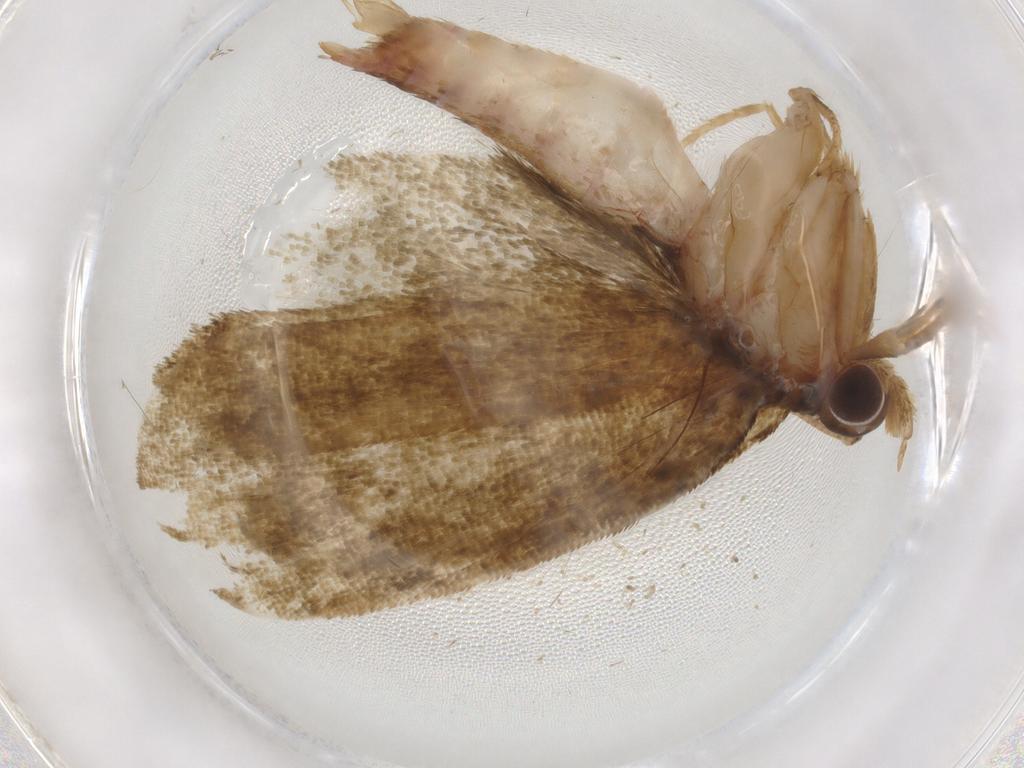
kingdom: Animalia
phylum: Arthropoda
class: Insecta
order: Lepidoptera
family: Geometridae
